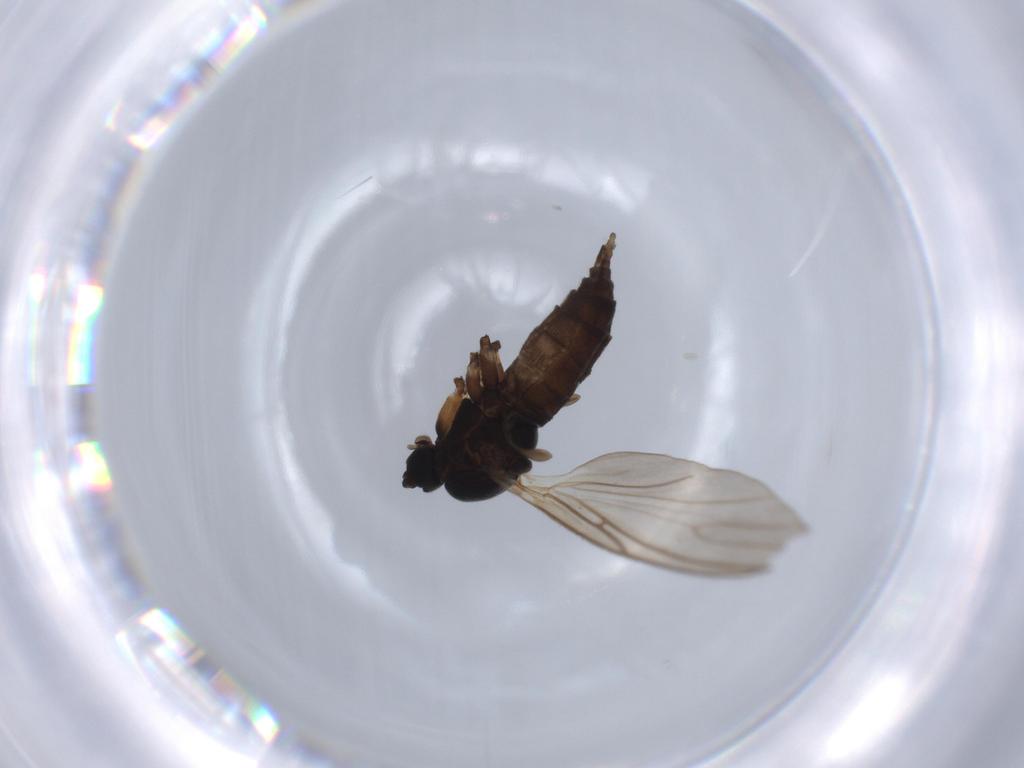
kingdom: Animalia
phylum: Arthropoda
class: Insecta
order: Diptera
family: Sciaridae
